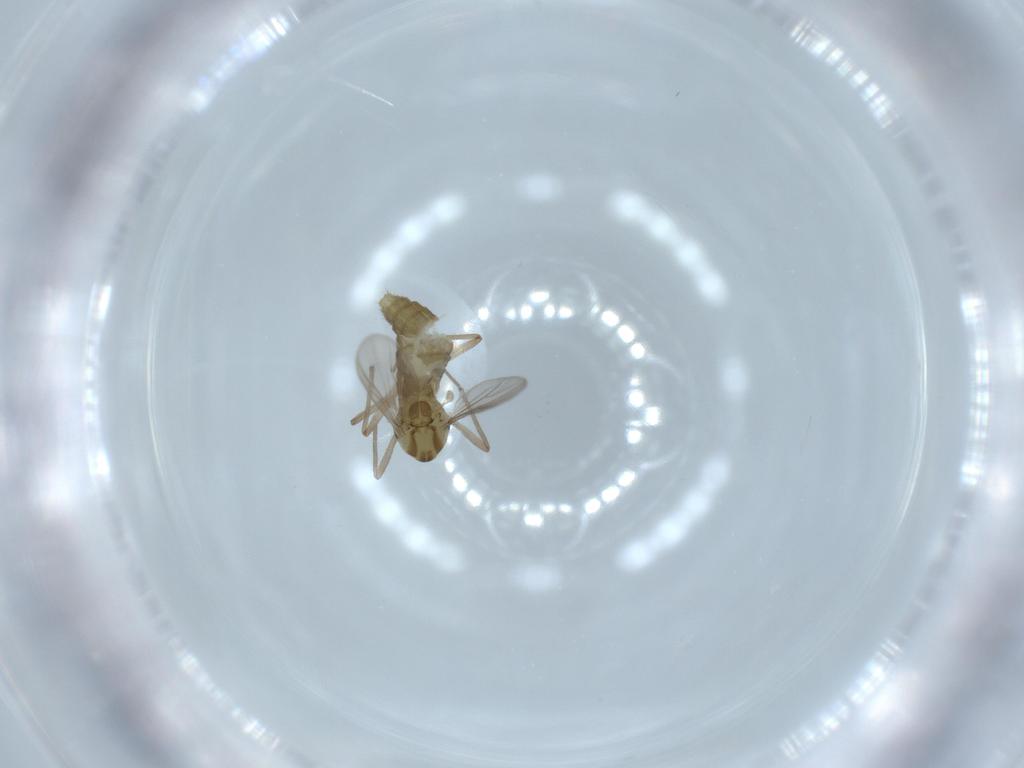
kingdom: Animalia
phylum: Arthropoda
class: Insecta
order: Diptera
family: Chironomidae
